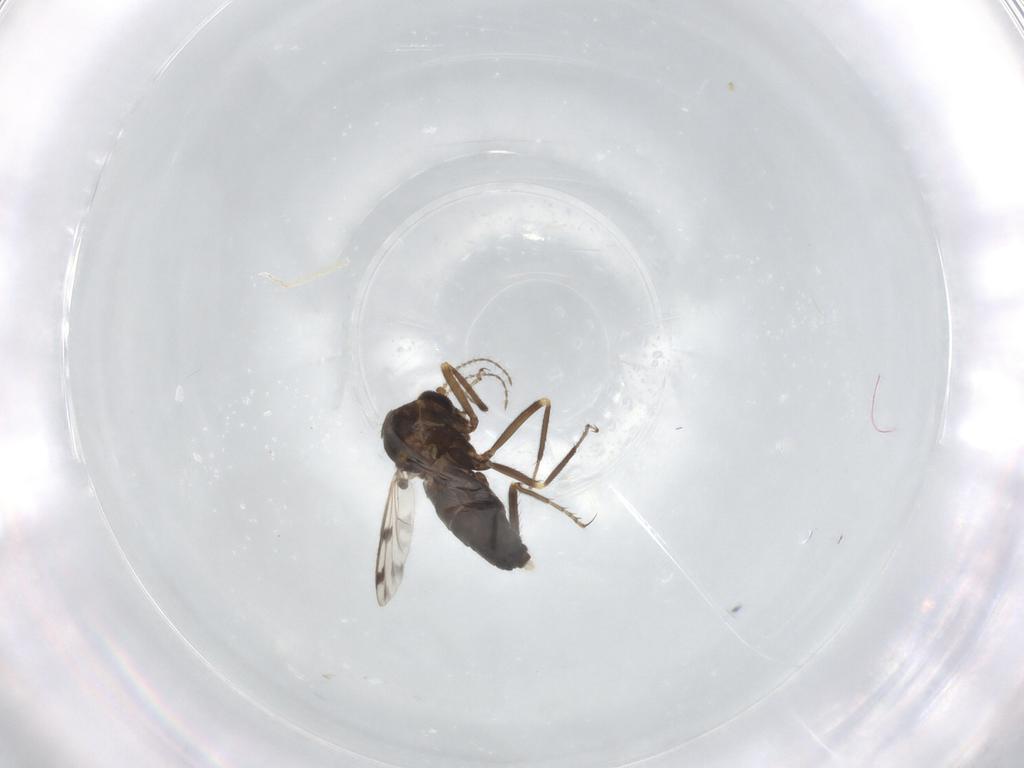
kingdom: Animalia
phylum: Arthropoda
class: Insecta
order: Diptera
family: Ceratopogonidae
